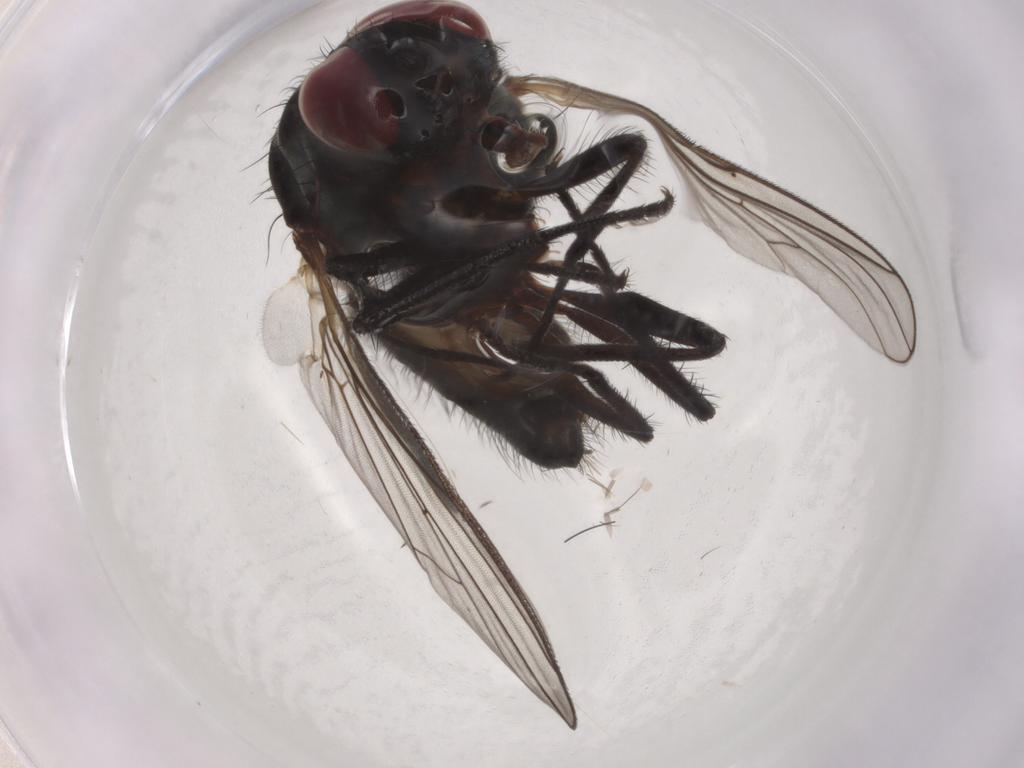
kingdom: Animalia
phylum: Arthropoda
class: Insecta
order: Diptera
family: Anthomyiidae
